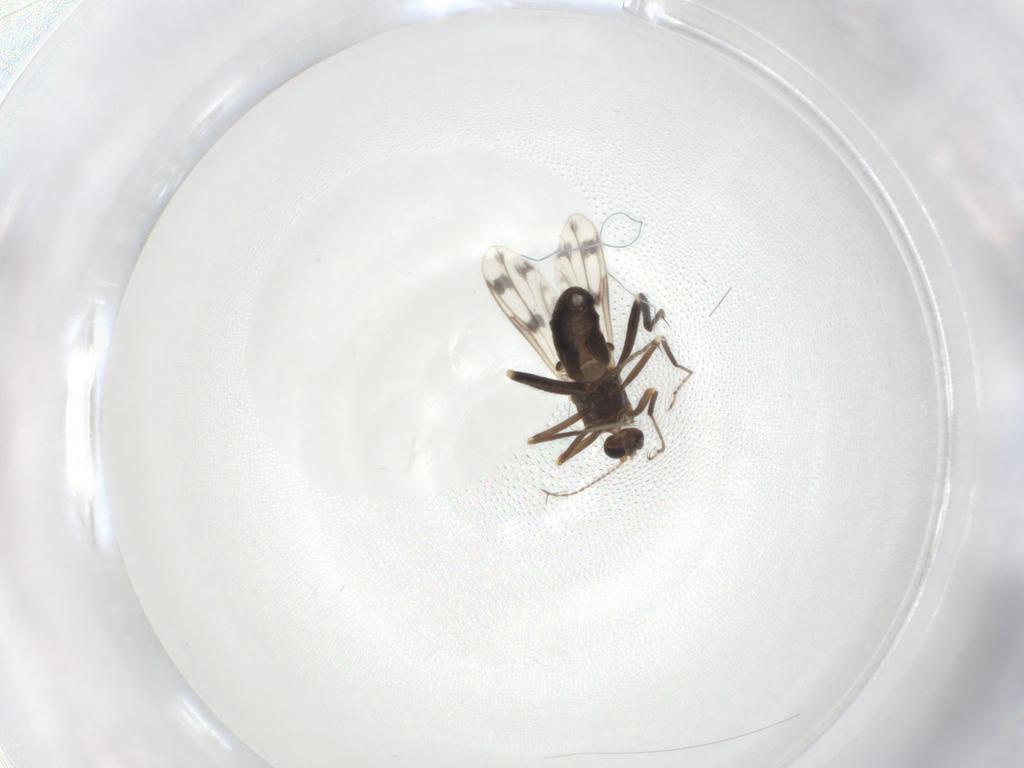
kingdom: Animalia
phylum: Arthropoda
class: Insecta
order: Diptera
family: Ceratopogonidae
